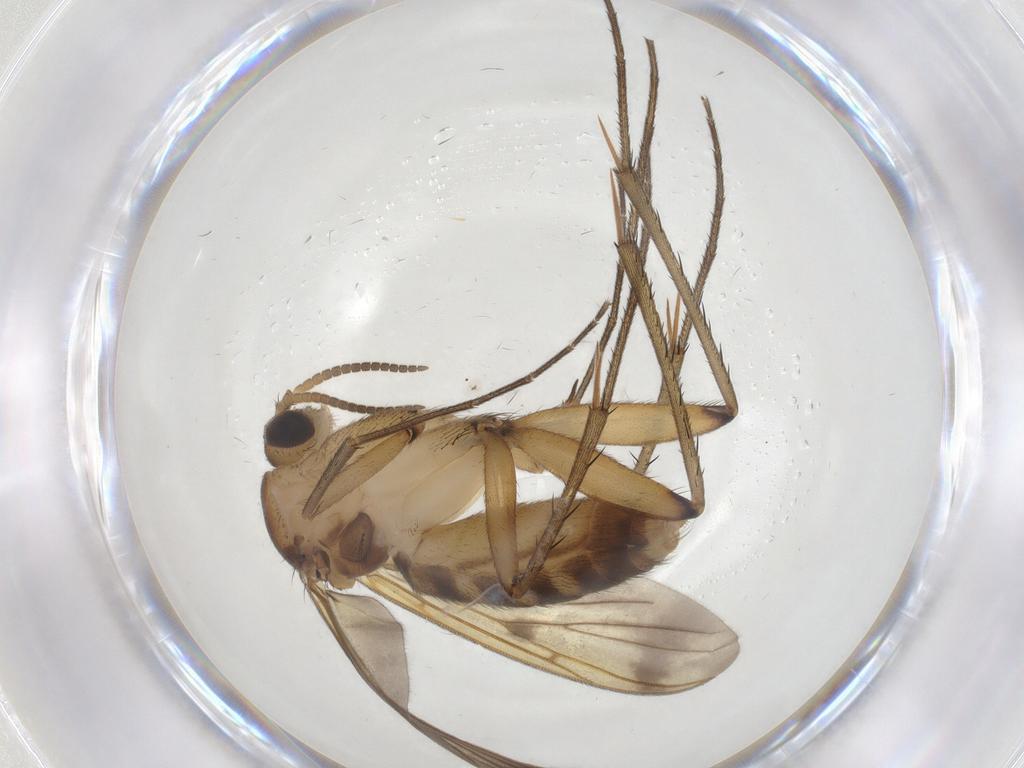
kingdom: Animalia
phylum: Arthropoda
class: Insecta
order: Diptera
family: Mycetophilidae
